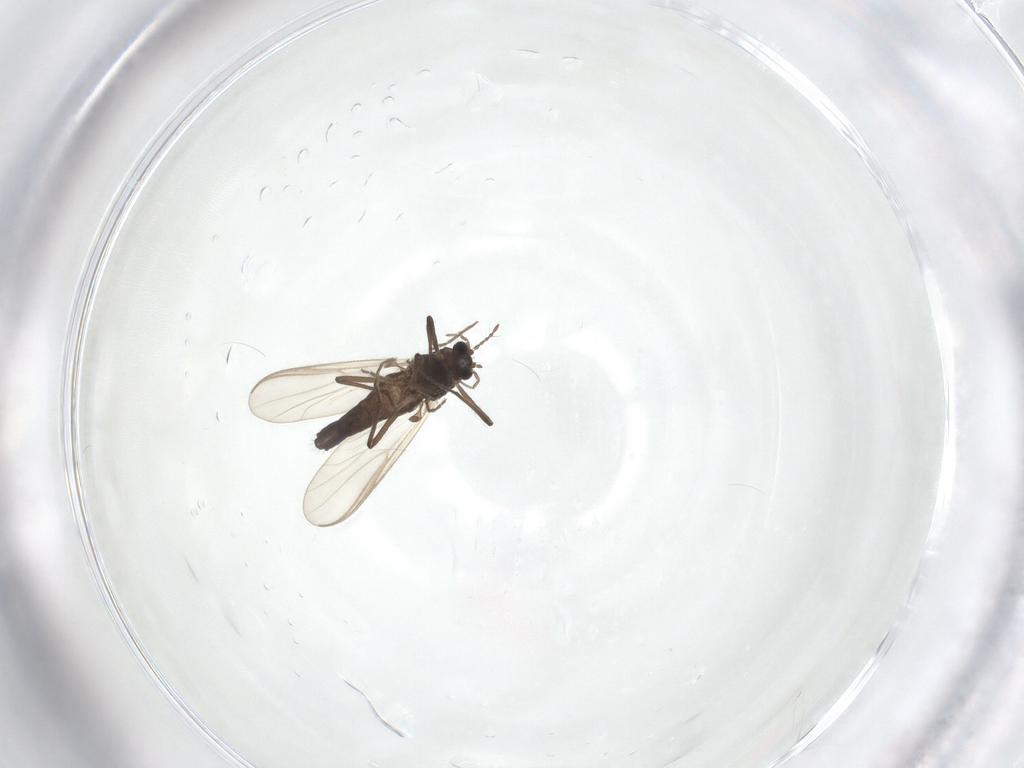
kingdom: Animalia
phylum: Arthropoda
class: Insecta
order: Diptera
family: Chironomidae
